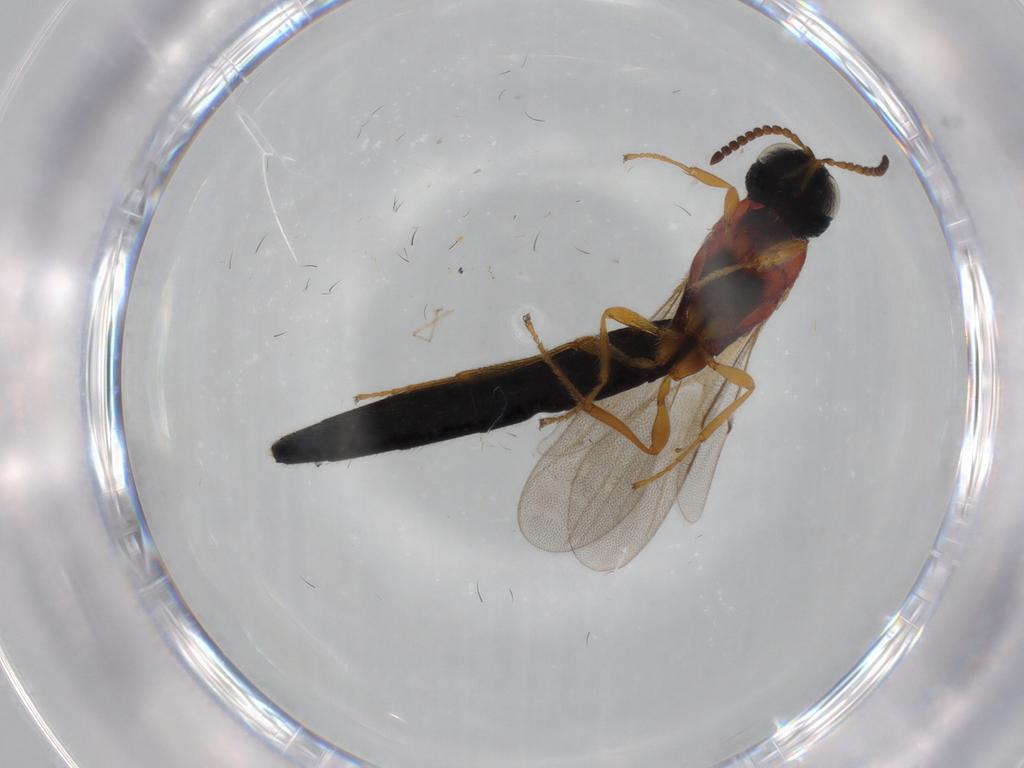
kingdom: Animalia
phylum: Arthropoda
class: Insecta
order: Hymenoptera
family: Scelionidae
